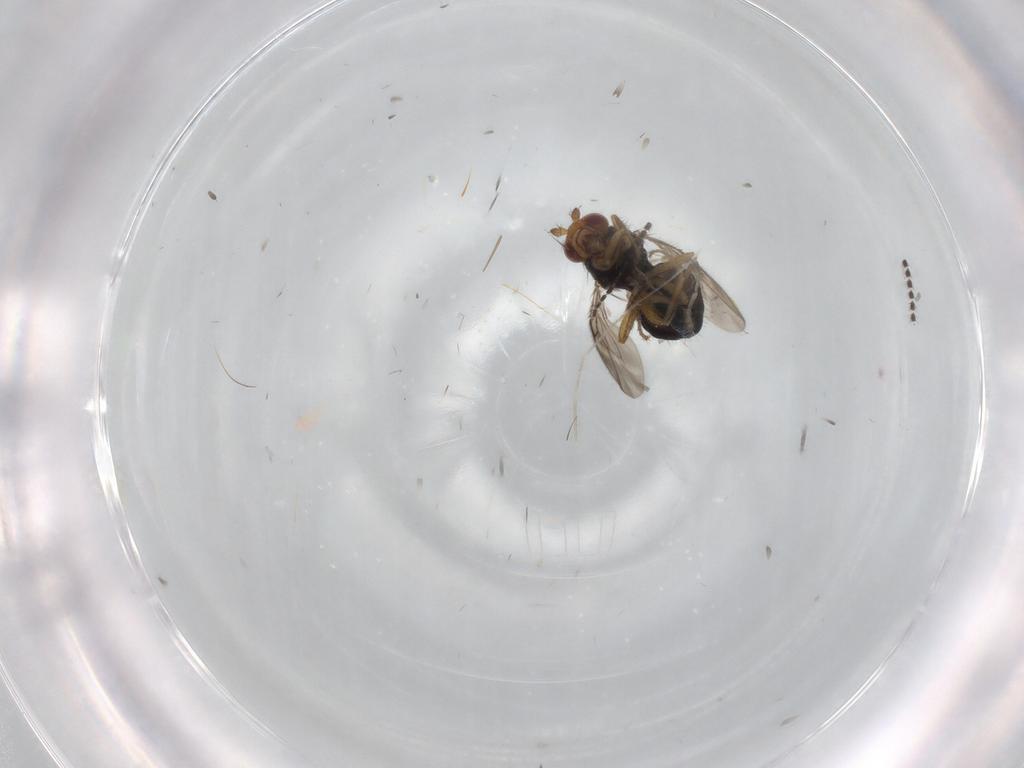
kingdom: Animalia
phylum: Arthropoda
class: Insecta
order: Diptera
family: Sphaeroceridae
